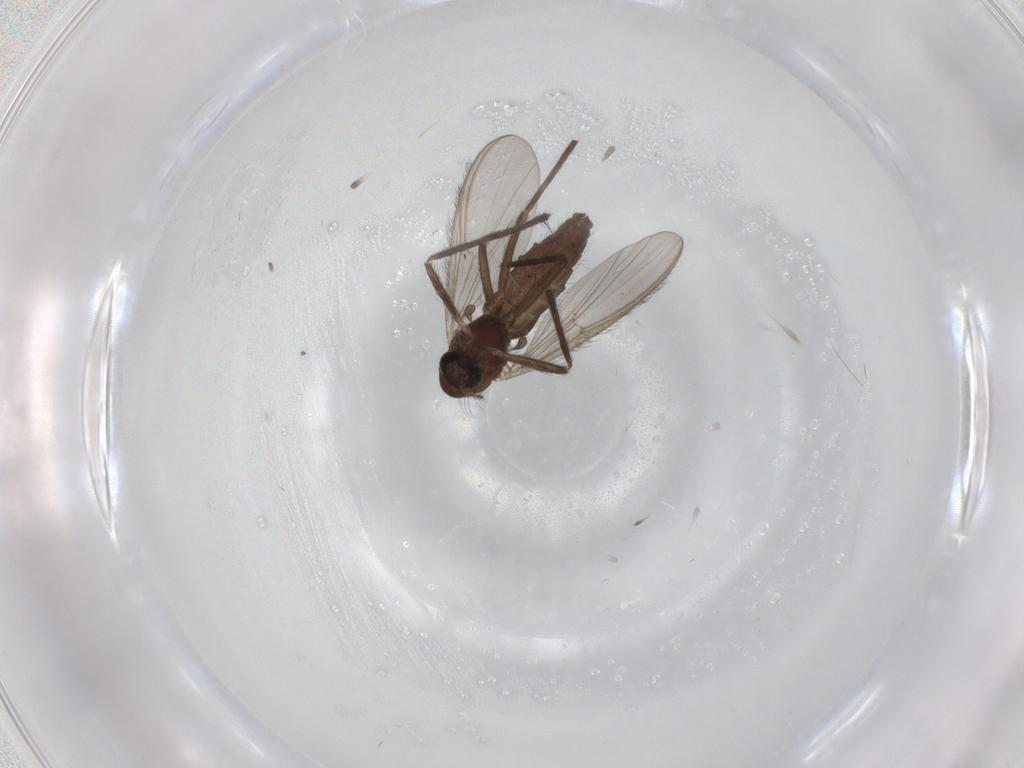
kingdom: Animalia
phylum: Arthropoda
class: Insecta
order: Diptera
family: Chironomidae
